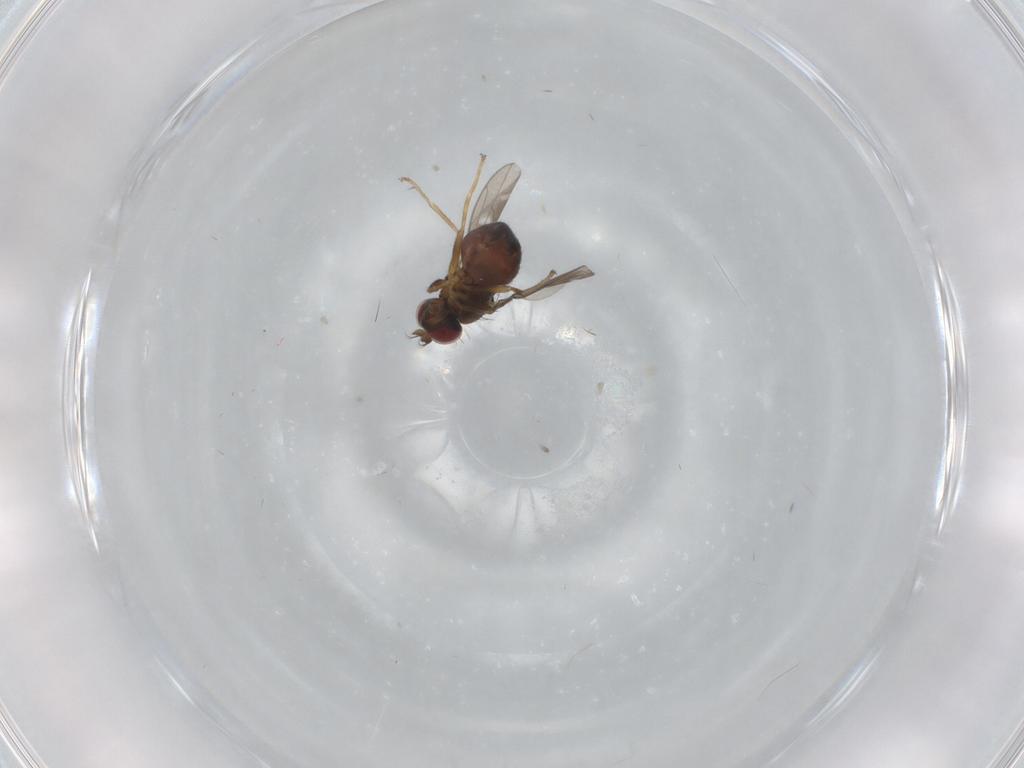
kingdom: Animalia
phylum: Arthropoda
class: Insecta
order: Diptera
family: Ephydridae
